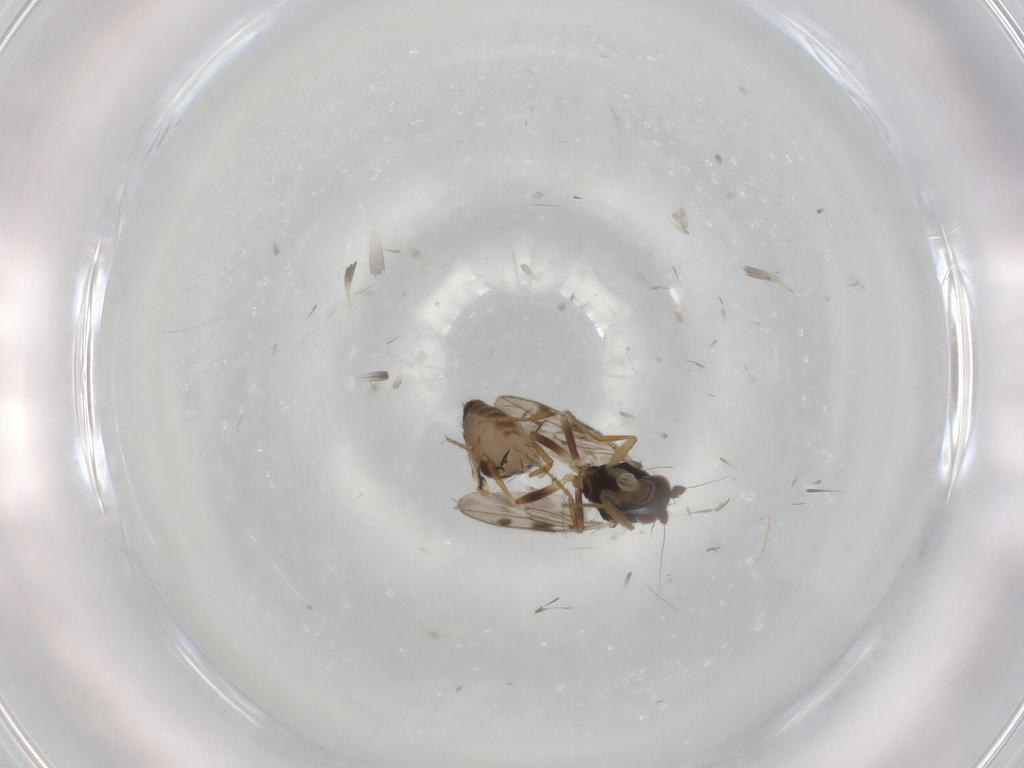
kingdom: Animalia
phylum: Arthropoda
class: Insecta
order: Diptera
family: Sphaeroceridae
